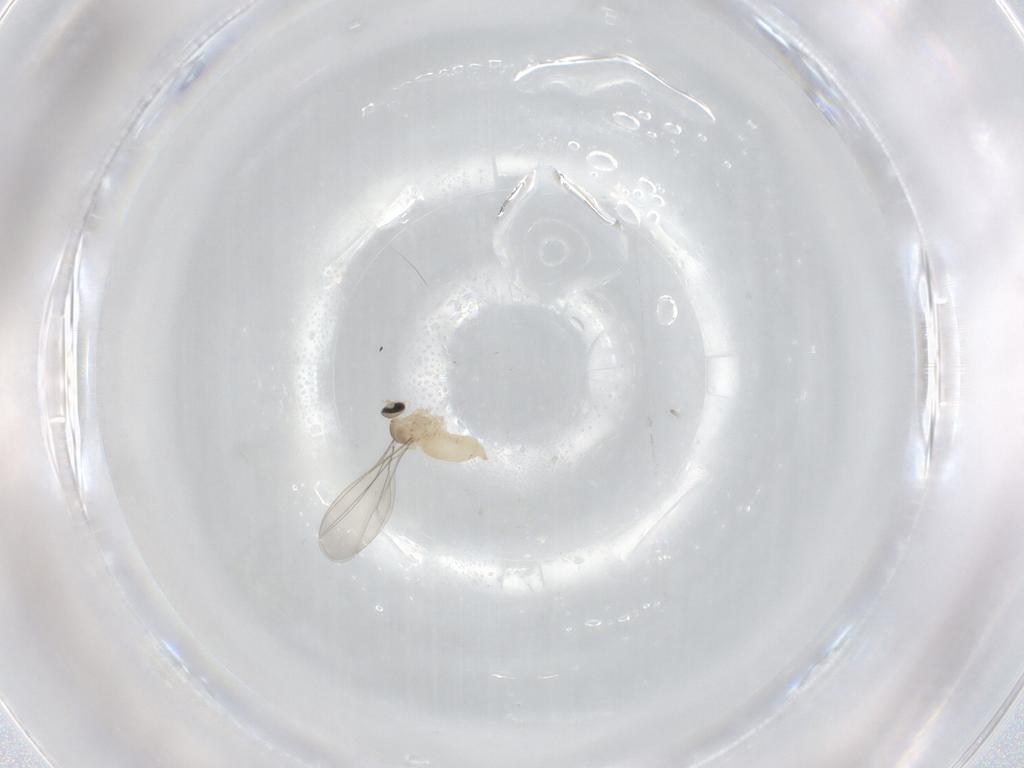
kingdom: Animalia
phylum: Arthropoda
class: Insecta
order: Diptera
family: Cecidomyiidae
